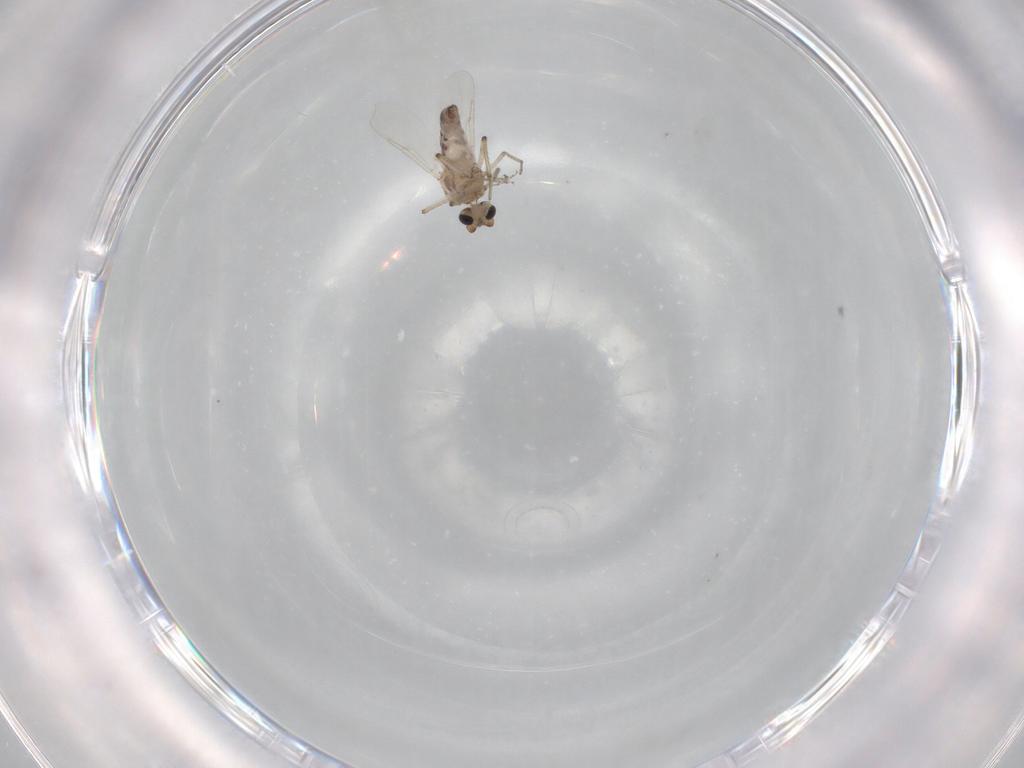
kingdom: Animalia
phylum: Arthropoda
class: Insecta
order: Diptera
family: Ceratopogonidae
